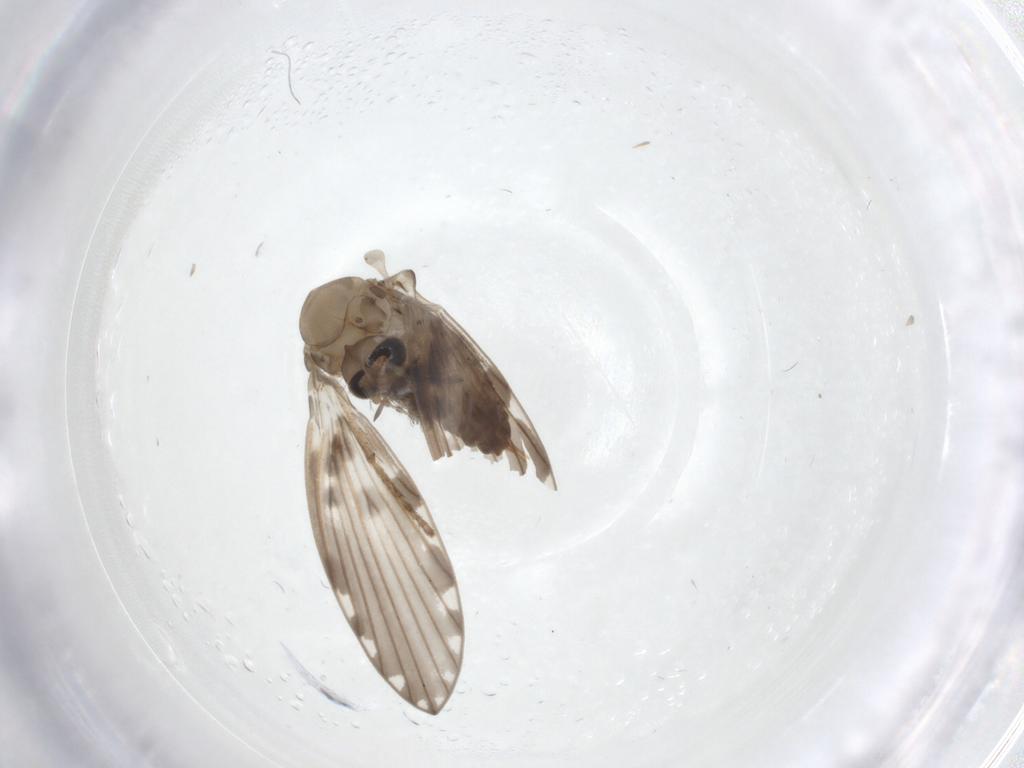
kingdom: Animalia
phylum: Arthropoda
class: Insecta
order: Diptera
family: Psychodidae
